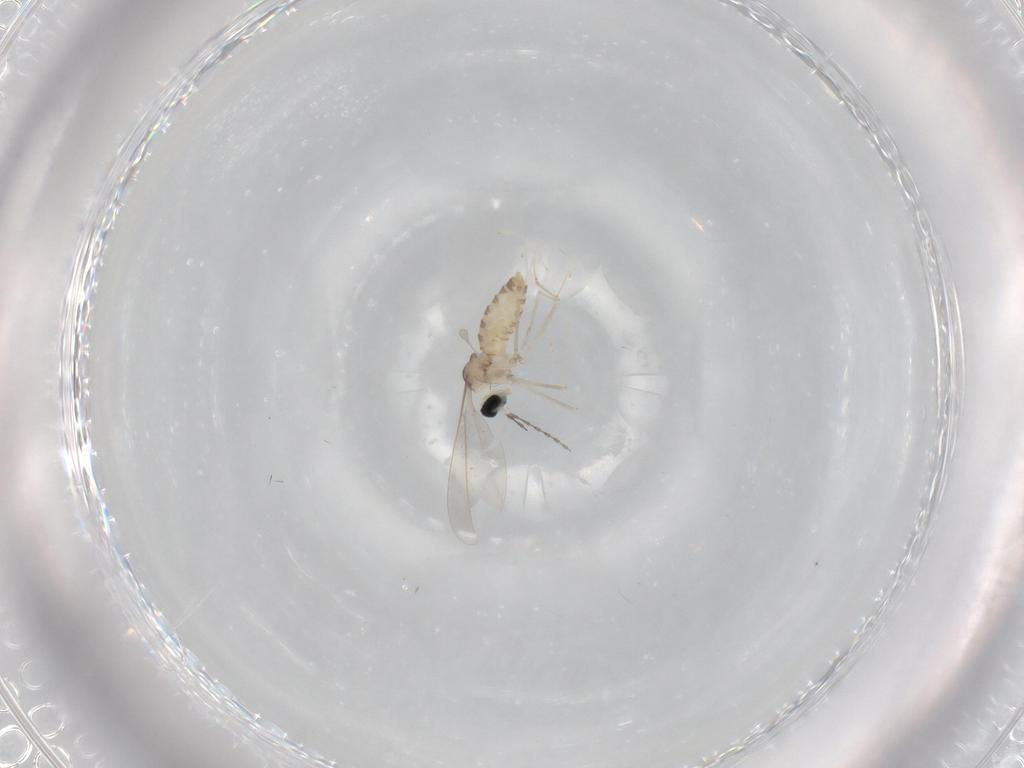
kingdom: Animalia
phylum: Arthropoda
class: Insecta
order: Diptera
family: Cecidomyiidae
